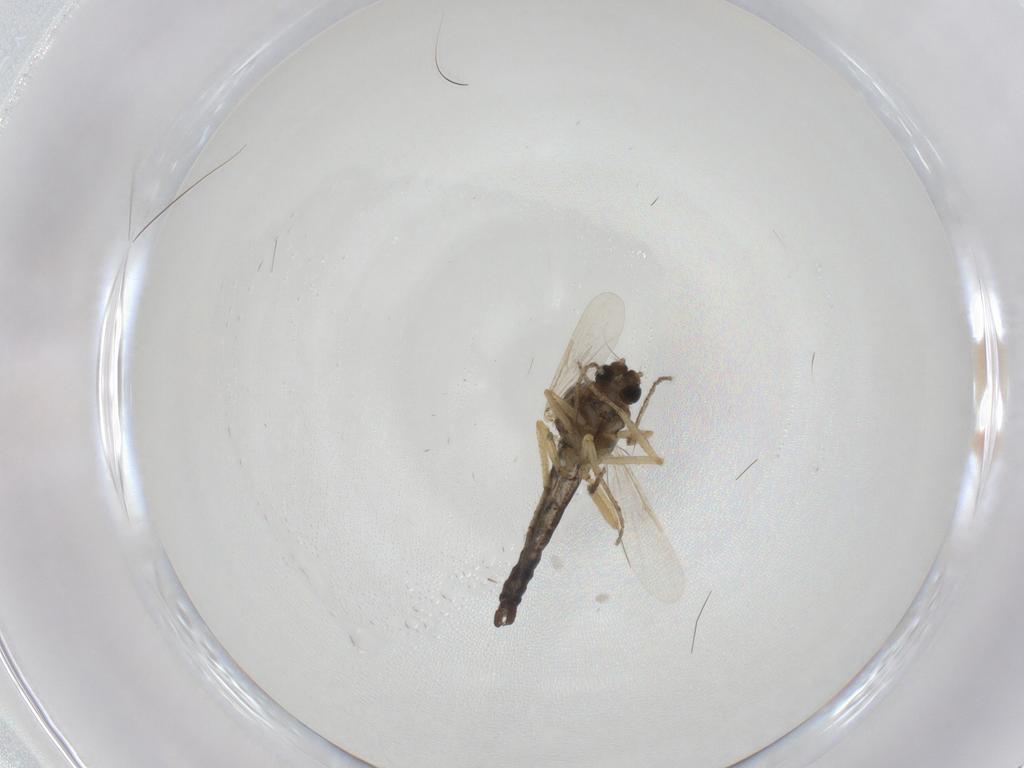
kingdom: Animalia
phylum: Arthropoda
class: Insecta
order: Diptera
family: Ceratopogonidae
